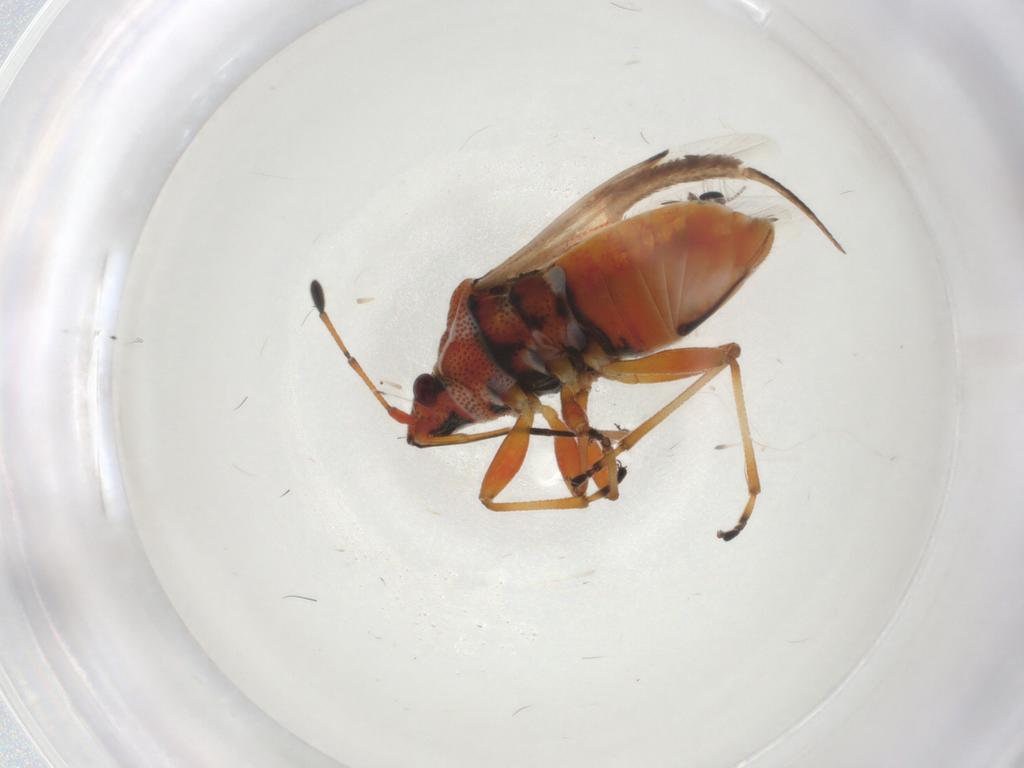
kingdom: Animalia
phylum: Arthropoda
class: Insecta
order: Hemiptera
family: Lygaeidae
